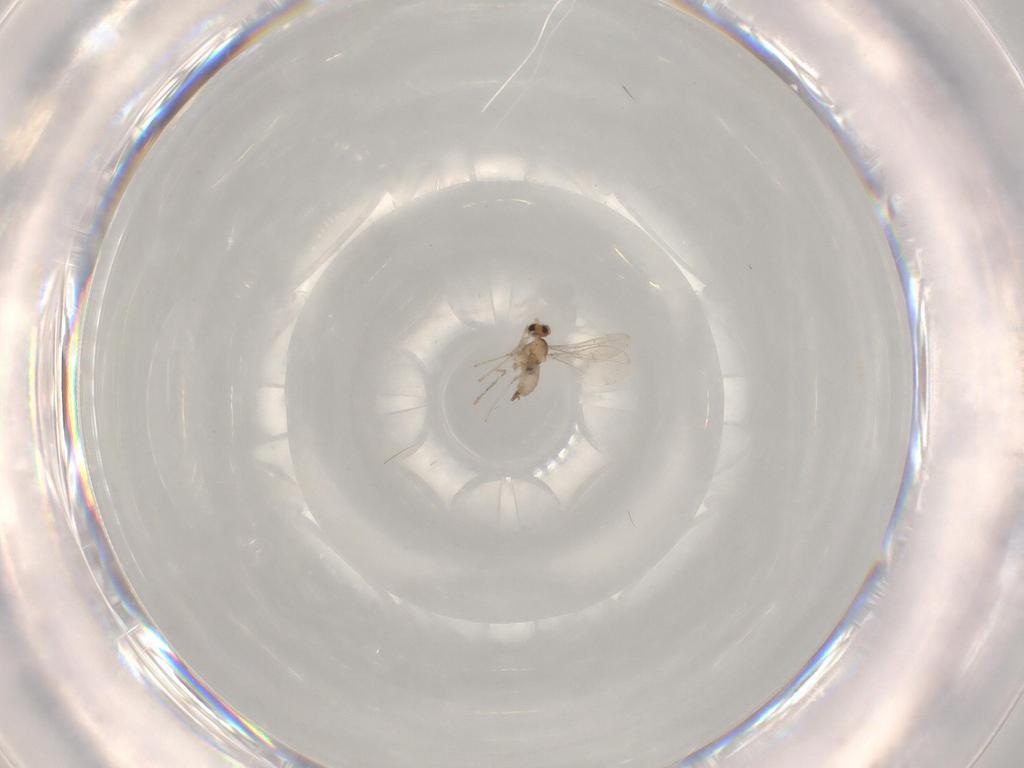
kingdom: Animalia
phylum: Arthropoda
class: Insecta
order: Diptera
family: Cecidomyiidae
